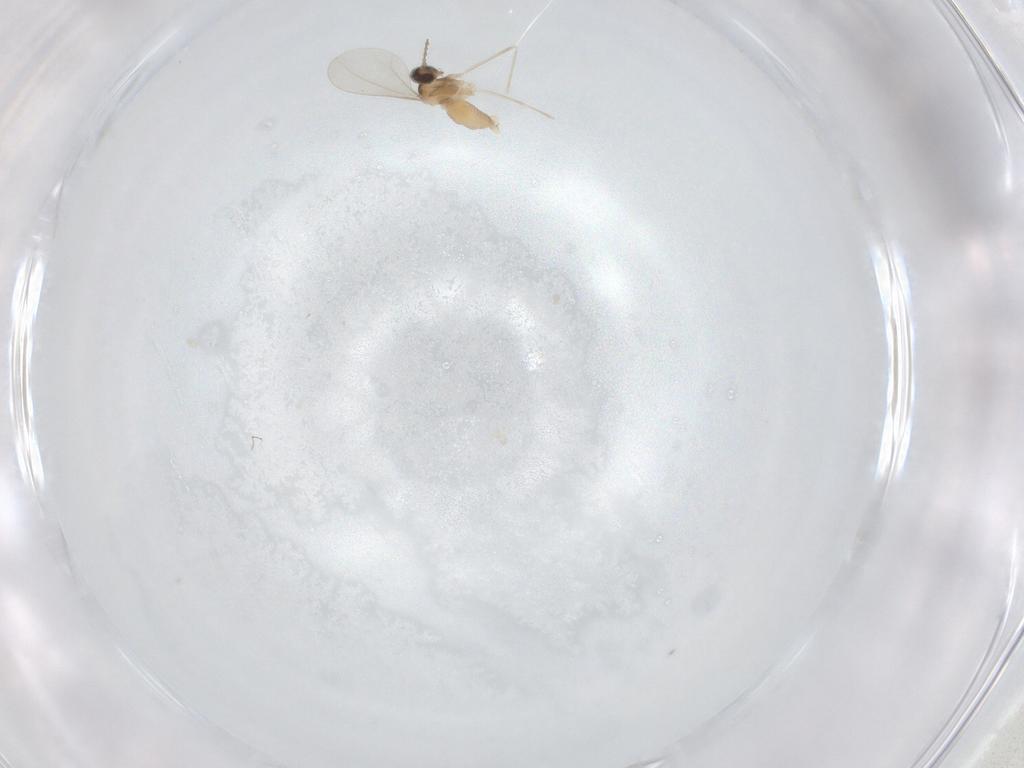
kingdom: Animalia
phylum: Arthropoda
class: Insecta
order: Diptera
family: Cecidomyiidae
